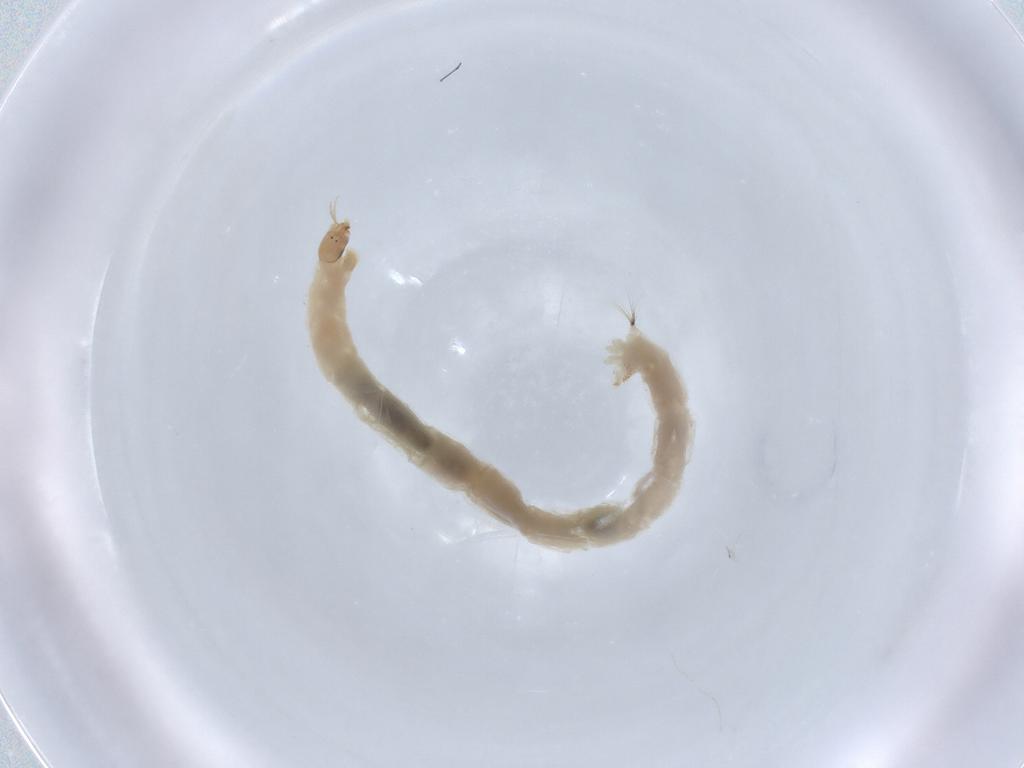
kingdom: Animalia
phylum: Arthropoda
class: Insecta
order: Diptera
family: Chironomidae
